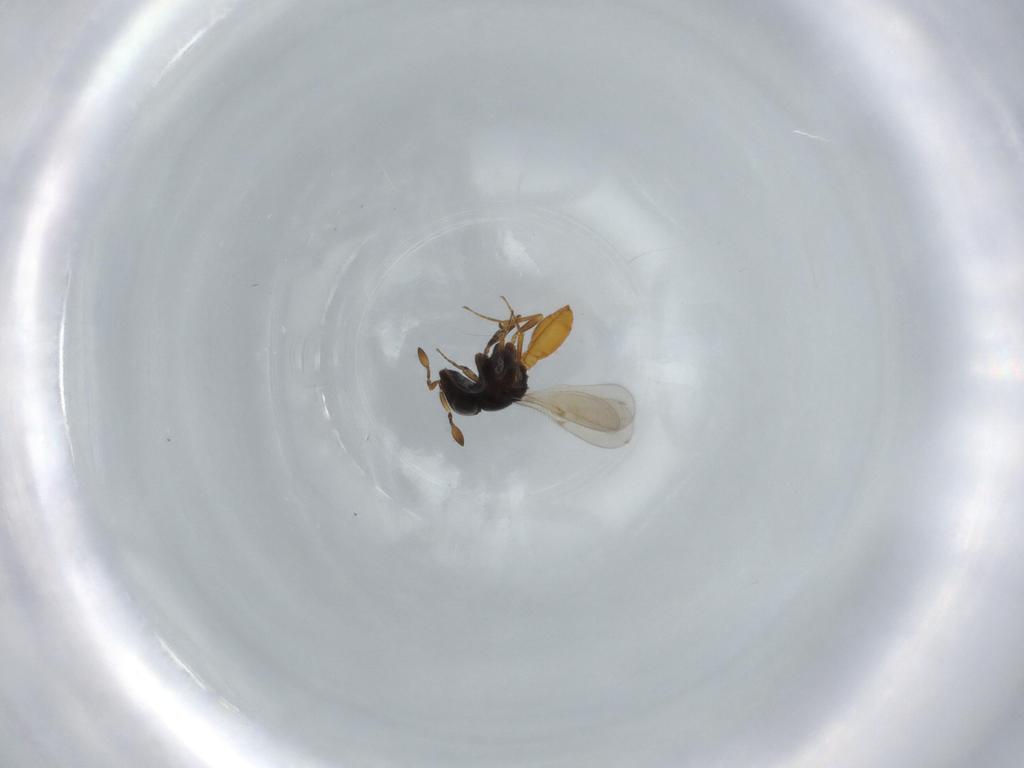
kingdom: Animalia
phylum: Arthropoda
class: Insecta
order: Hymenoptera
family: Scelionidae
